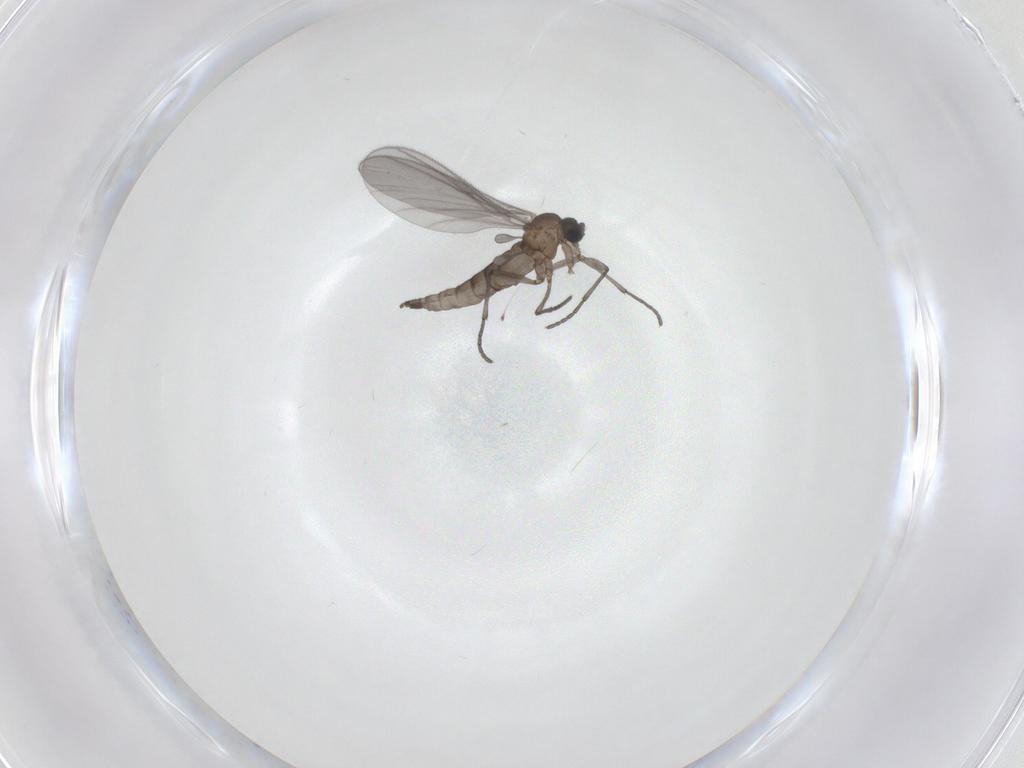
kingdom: Animalia
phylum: Arthropoda
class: Insecta
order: Diptera
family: Sciaridae
